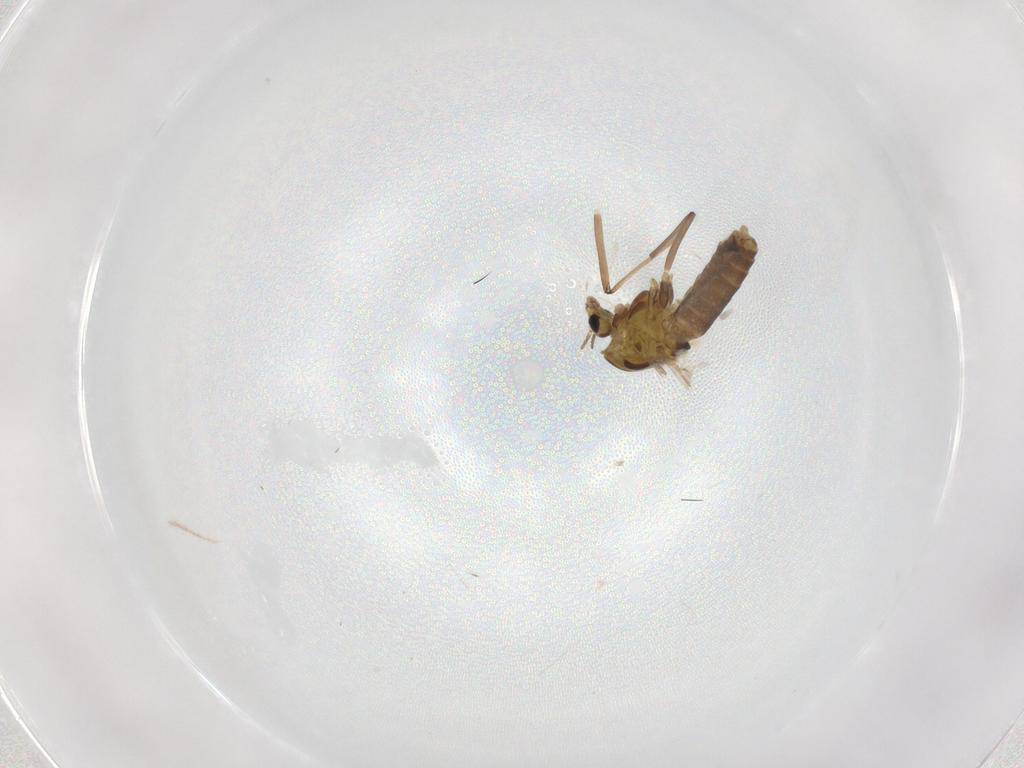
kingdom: Animalia
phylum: Arthropoda
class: Insecta
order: Diptera
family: Chironomidae
